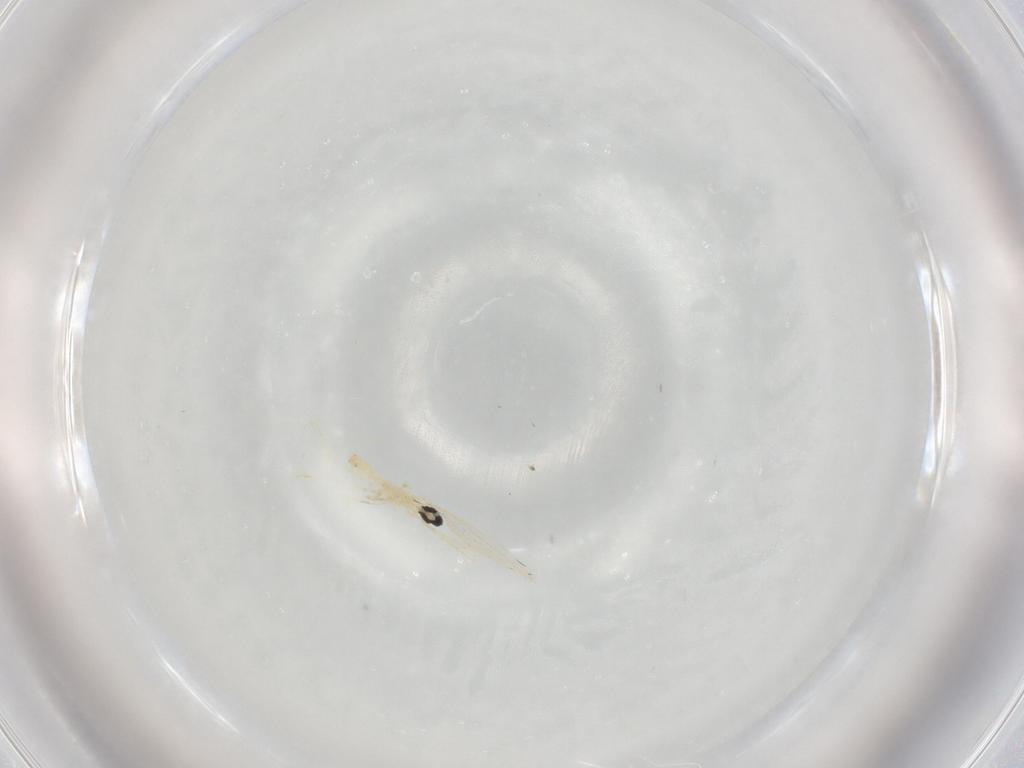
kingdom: Animalia
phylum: Arthropoda
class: Insecta
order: Diptera
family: Cecidomyiidae
